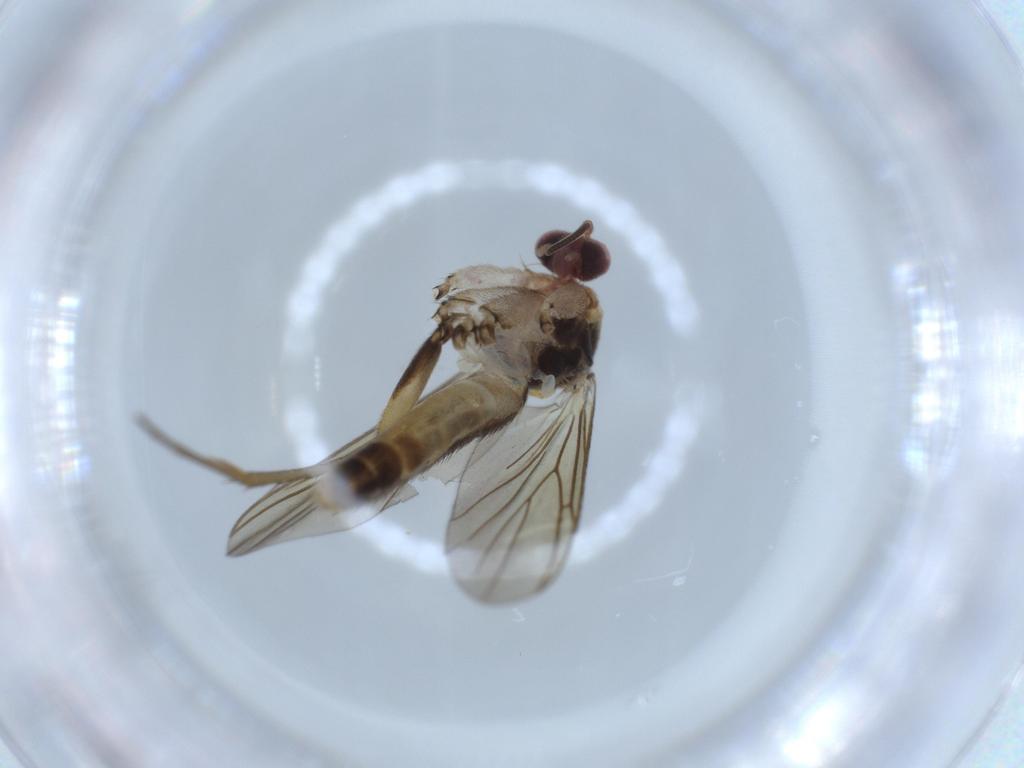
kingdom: Animalia
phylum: Arthropoda
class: Insecta
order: Diptera
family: Mycetophilidae
